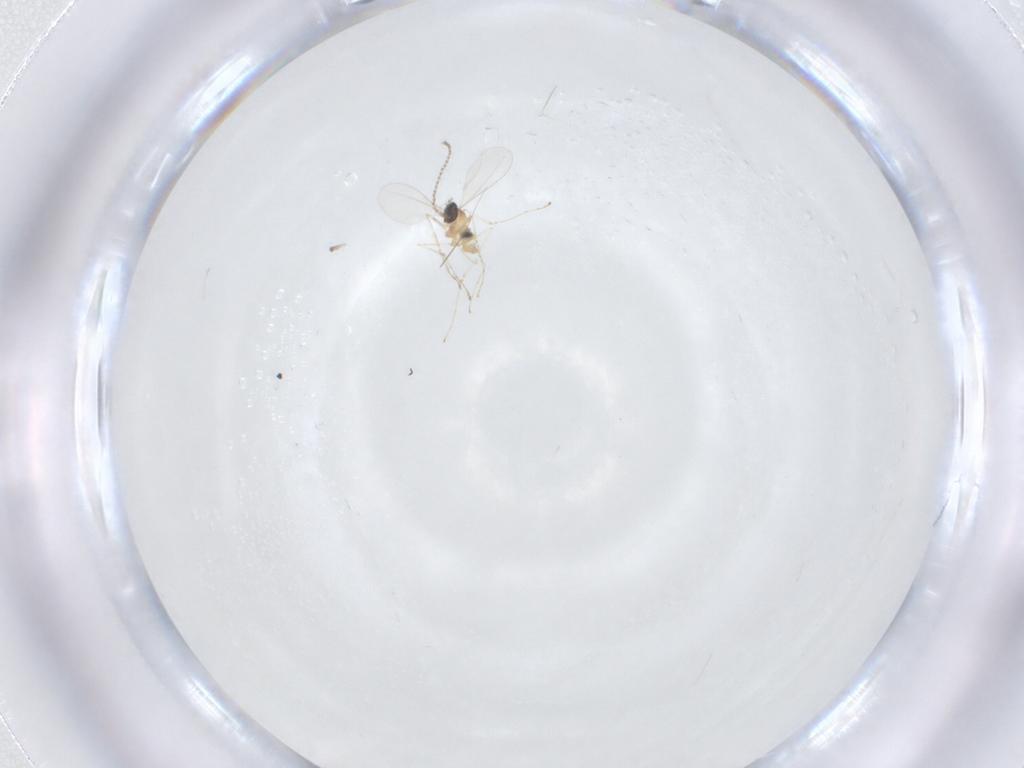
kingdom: Animalia
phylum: Arthropoda
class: Insecta
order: Diptera
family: Cecidomyiidae
